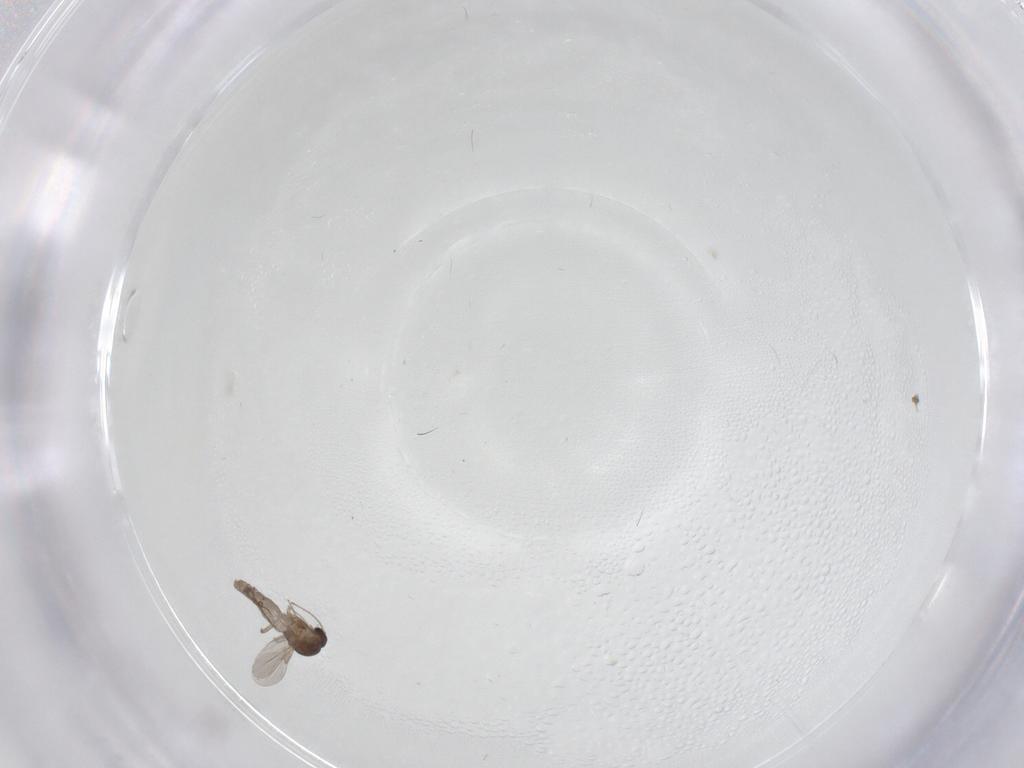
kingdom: Animalia
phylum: Arthropoda
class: Insecta
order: Diptera
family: Ceratopogonidae
